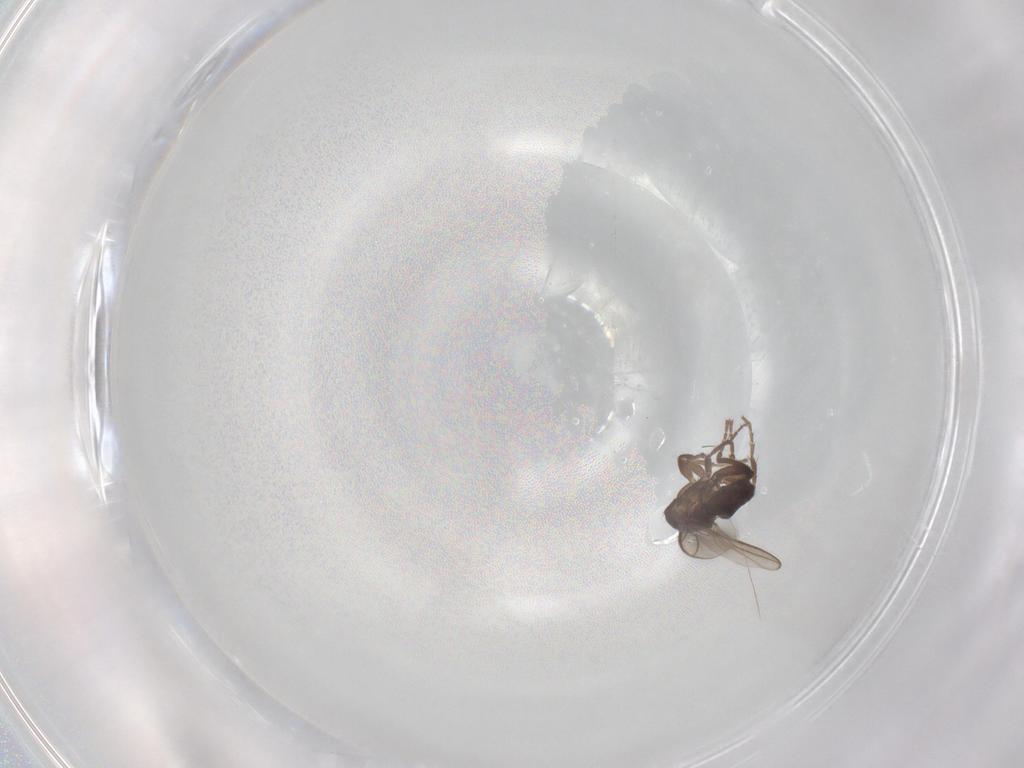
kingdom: Animalia
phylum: Arthropoda
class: Insecta
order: Diptera
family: Sphaeroceridae
